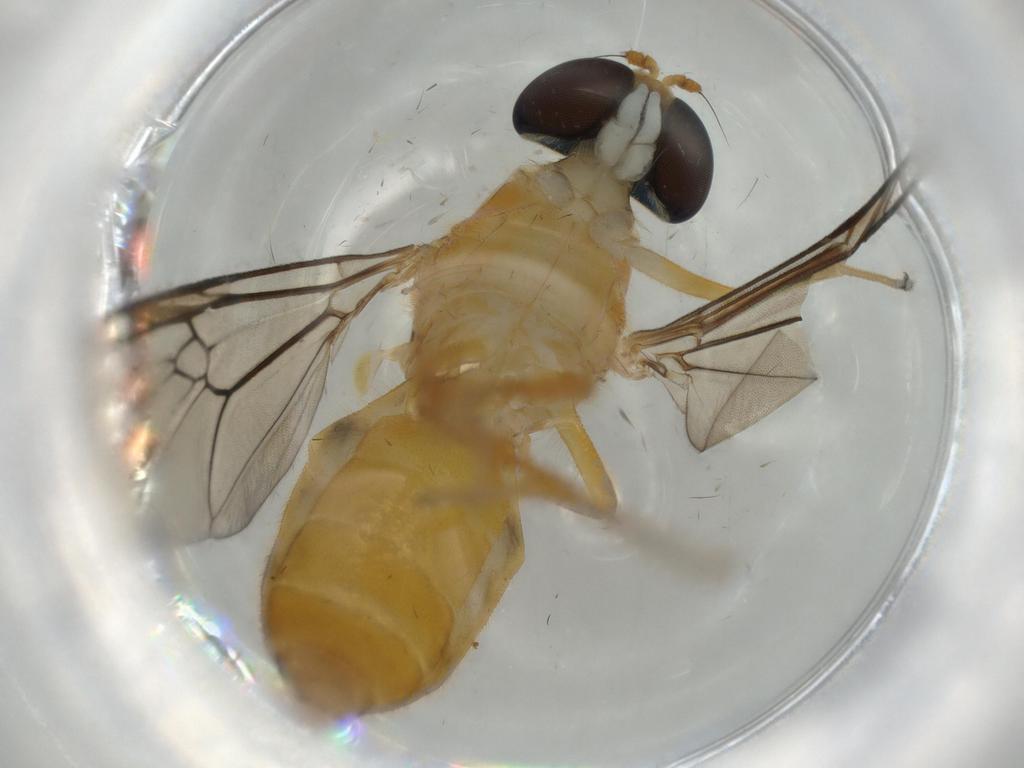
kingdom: Animalia
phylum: Arthropoda
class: Insecta
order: Diptera
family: Cecidomyiidae
